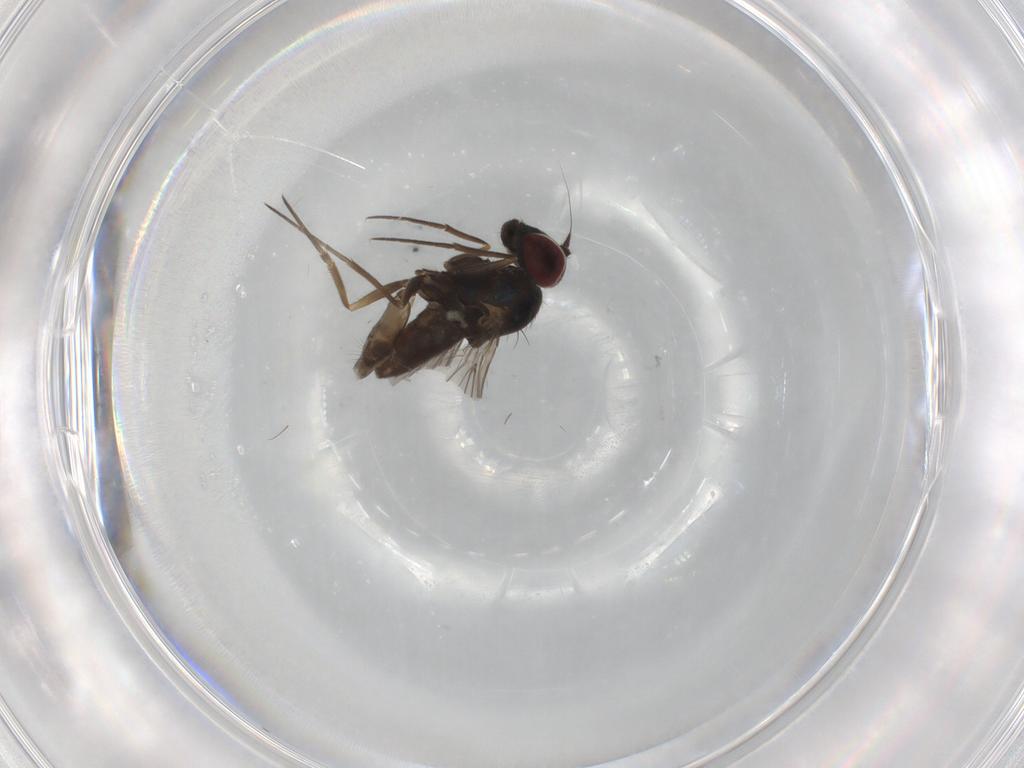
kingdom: Animalia
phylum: Arthropoda
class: Insecta
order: Diptera
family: Dolichopodidae
